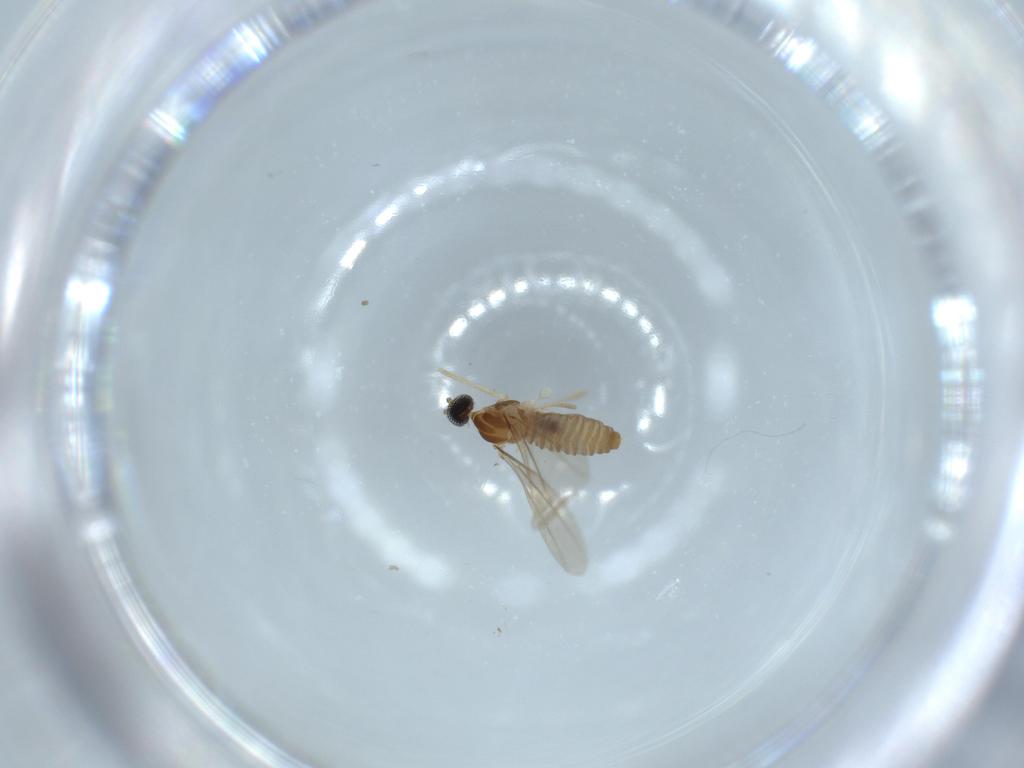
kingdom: Animalia
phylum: Arthropoda
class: Insecta
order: Diptera
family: Cecidomyiidae
